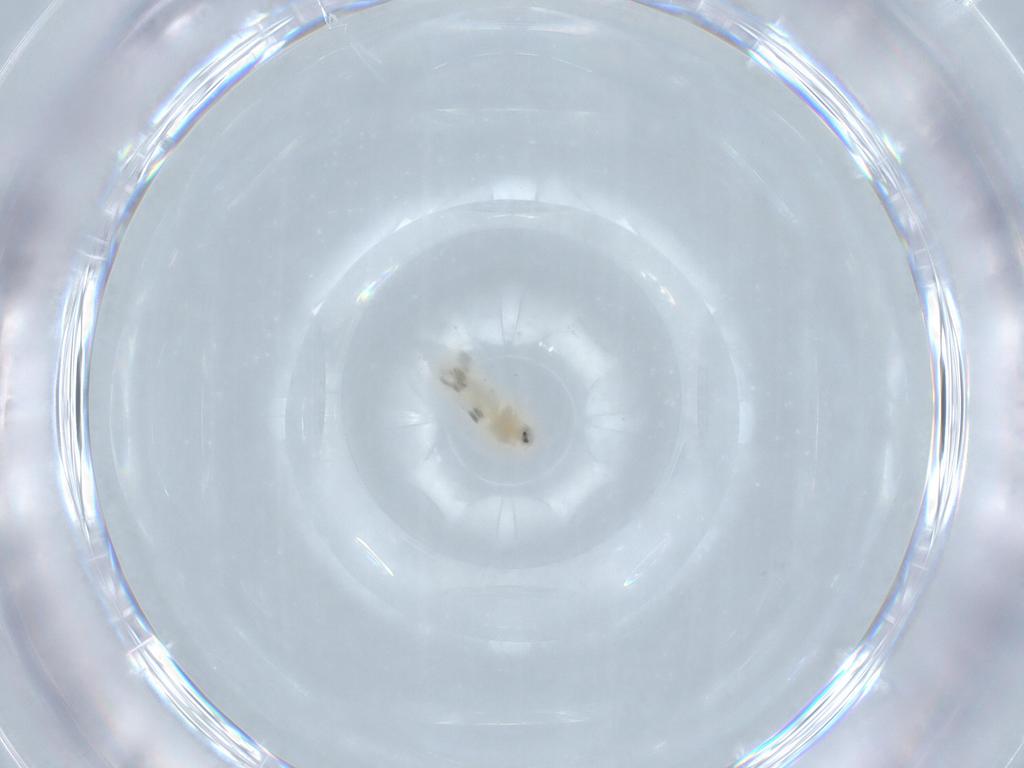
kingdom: Animalia
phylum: Arthropoda
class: Insecta
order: Hemiptera
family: Cercopidae
